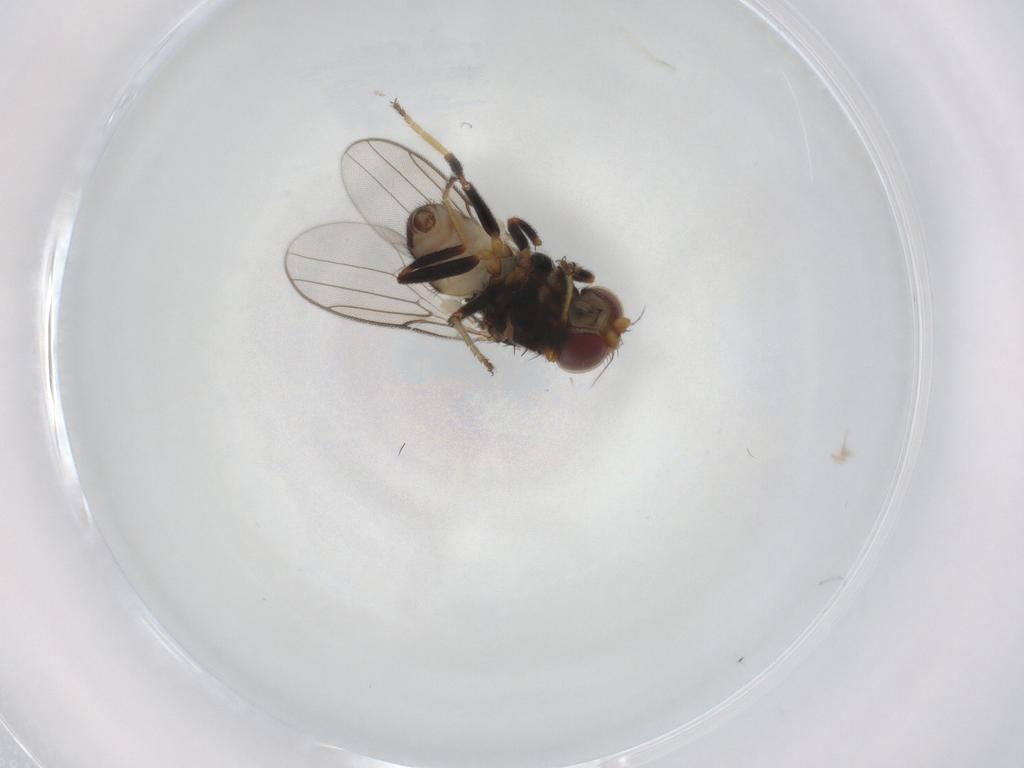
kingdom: Animalia
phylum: Arthropoda
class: Insecta
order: Diptera
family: Chloropidae
